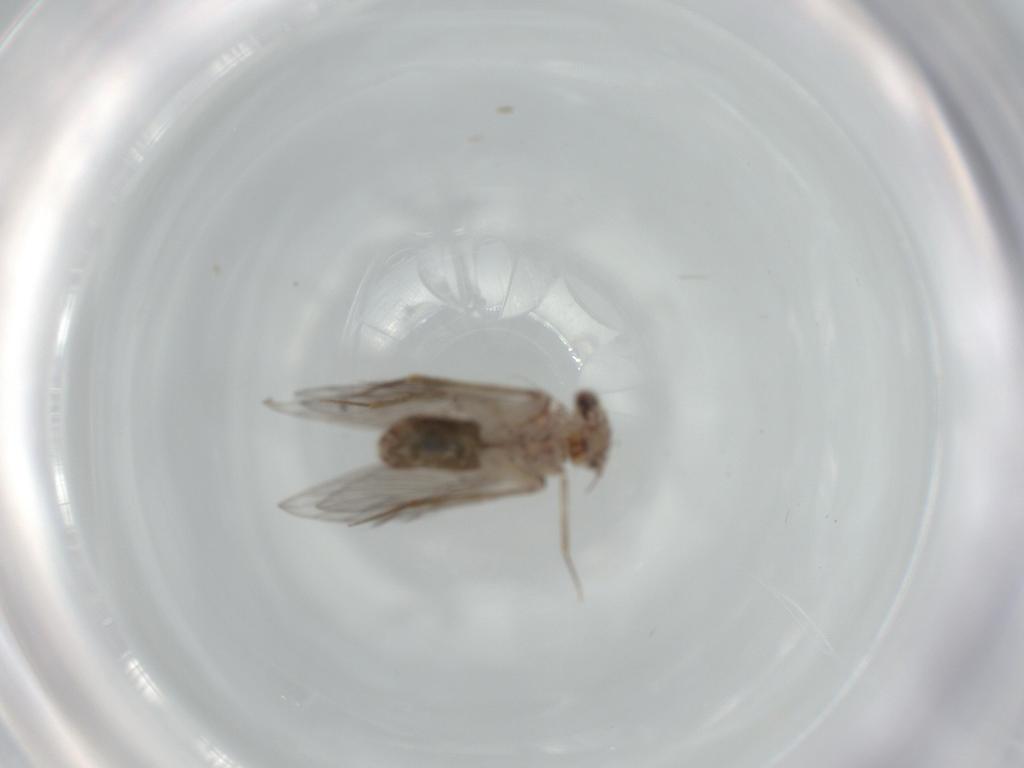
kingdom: Animalia
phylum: Arthropoda
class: Insecta
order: Psocodea
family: Lepidopsocidae
